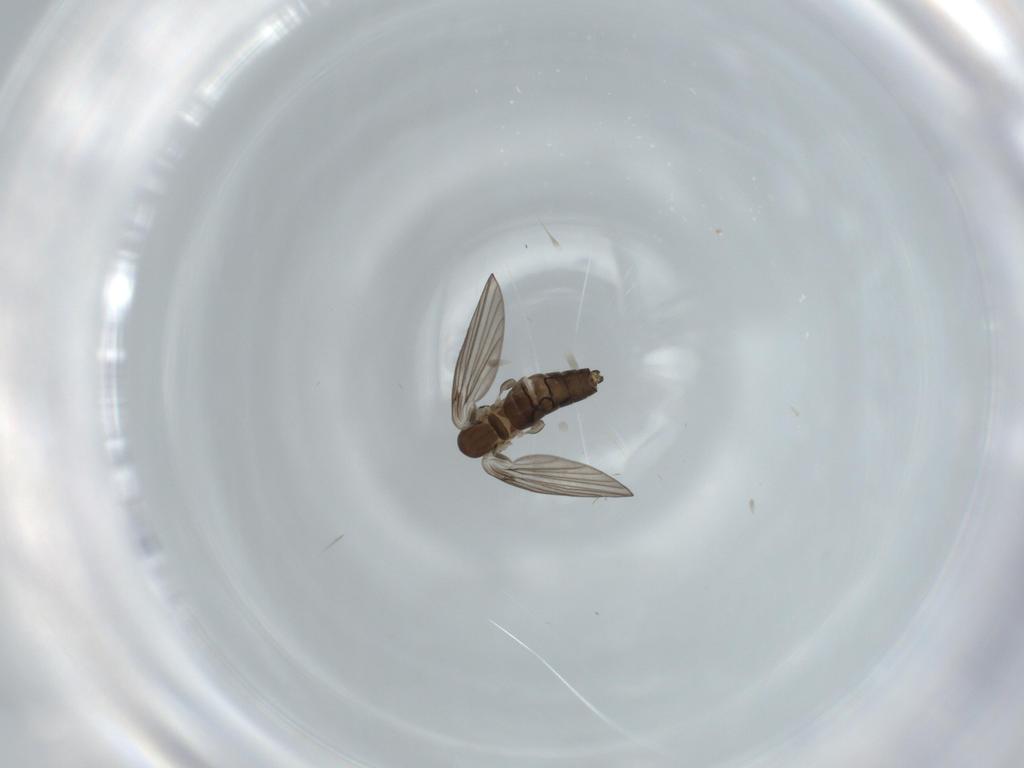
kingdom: Animalia
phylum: Arthropoda
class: Insecta
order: Diptera
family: Psychodidae
